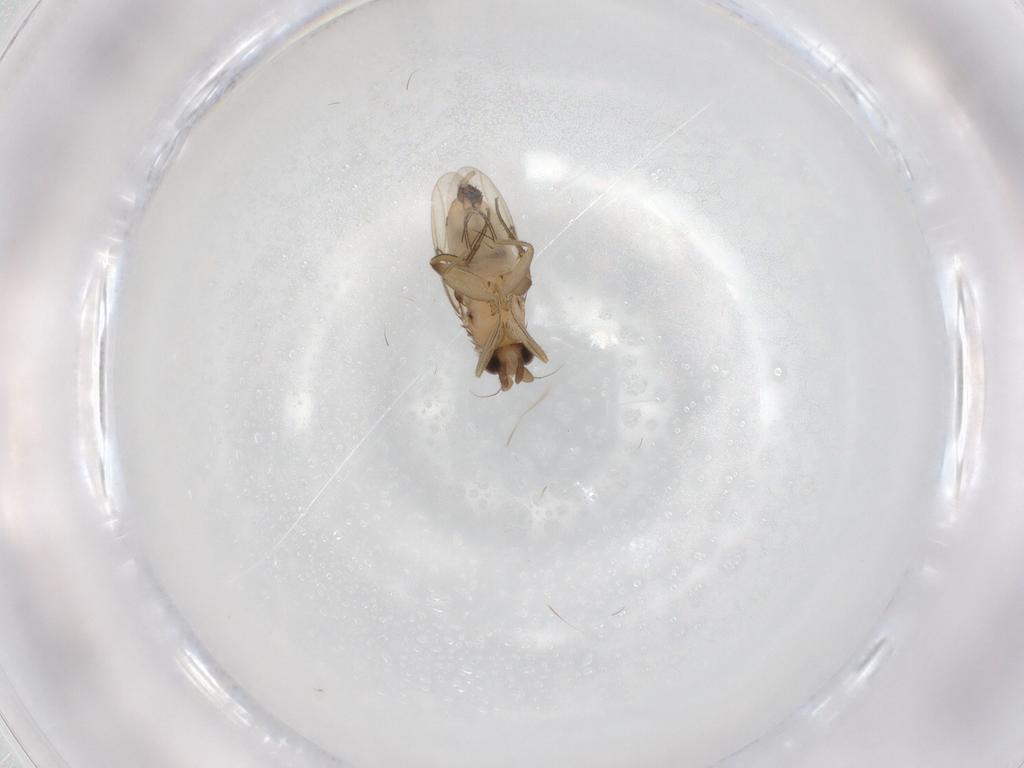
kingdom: Animalia
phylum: Arthropoda
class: Insecta
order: Diptera
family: Phoridae
